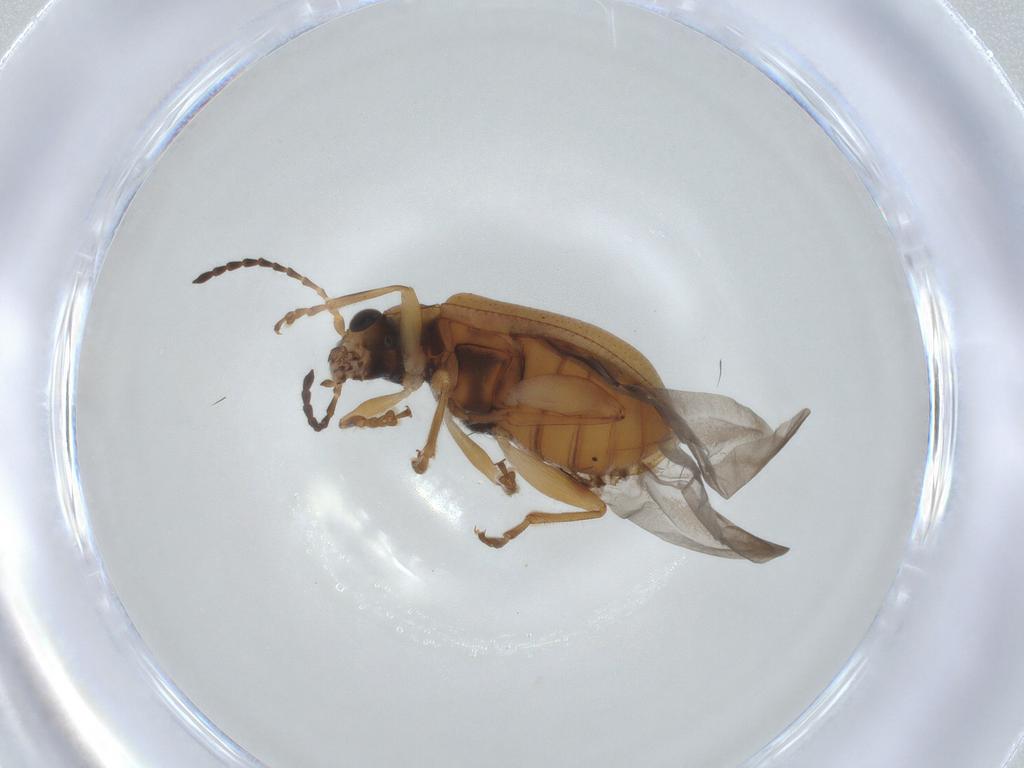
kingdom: Animalia
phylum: Arthropoda
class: Insecta
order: Coleoptera
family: Chrysomelidae
